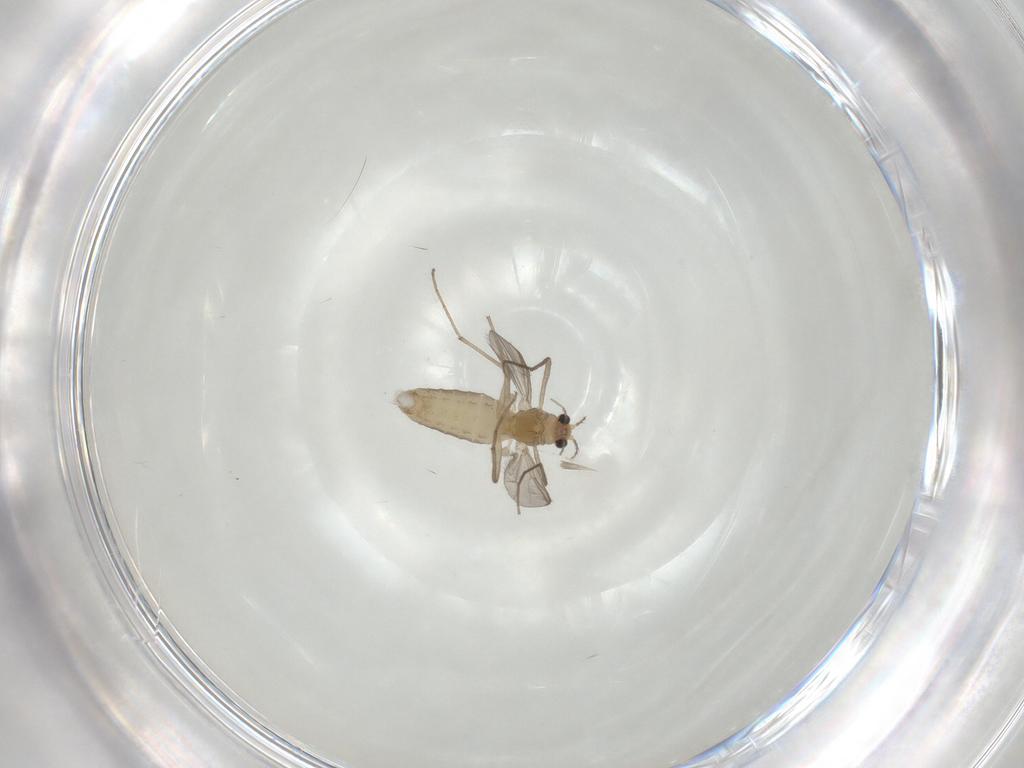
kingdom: Animalia
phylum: Arthropoda
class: Insecta
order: Diptera
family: Chironomidae
